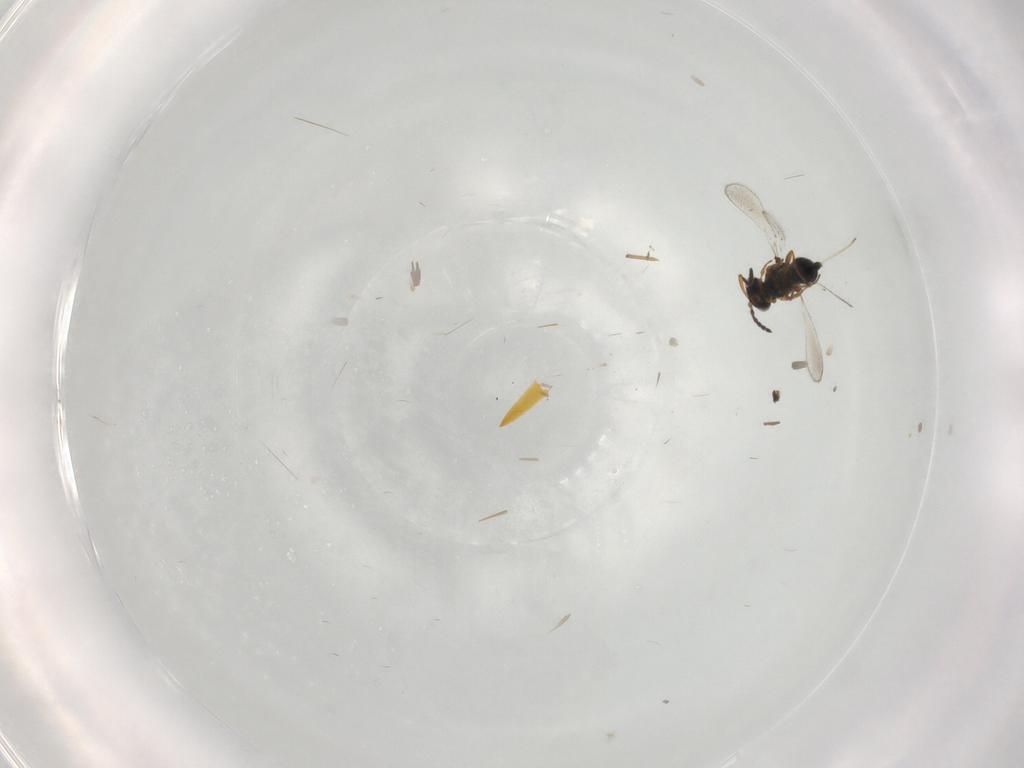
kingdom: Animalia
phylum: Arthropoda
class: Insecta
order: Hymenoptera
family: Platygastridae
